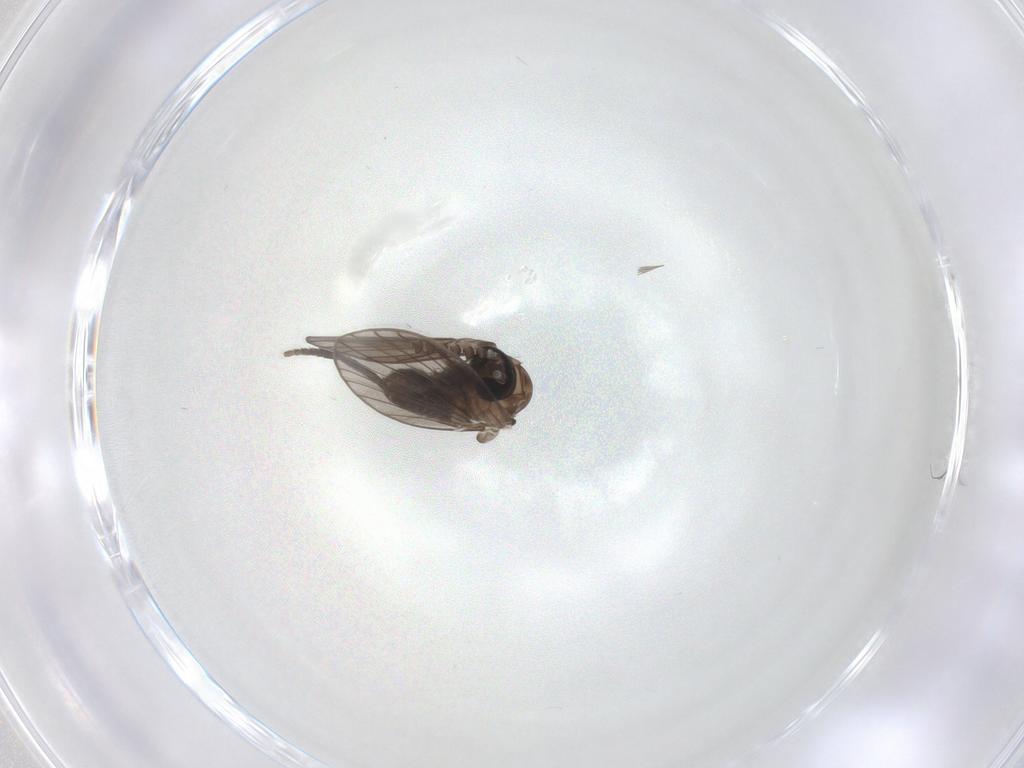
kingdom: Animalia
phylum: Arthropoda
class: Insecta
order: Diptera
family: Psychodidae
